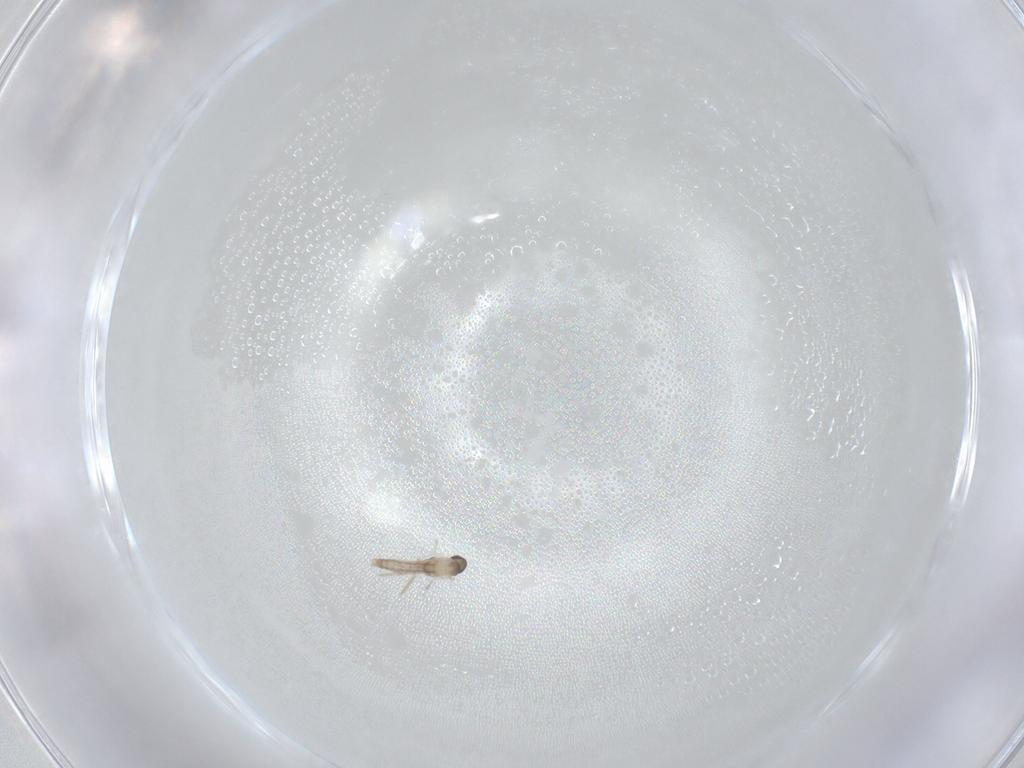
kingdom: Animalia
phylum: Arthropoda
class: Insecta
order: Diptera
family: Cecidomyiidae
